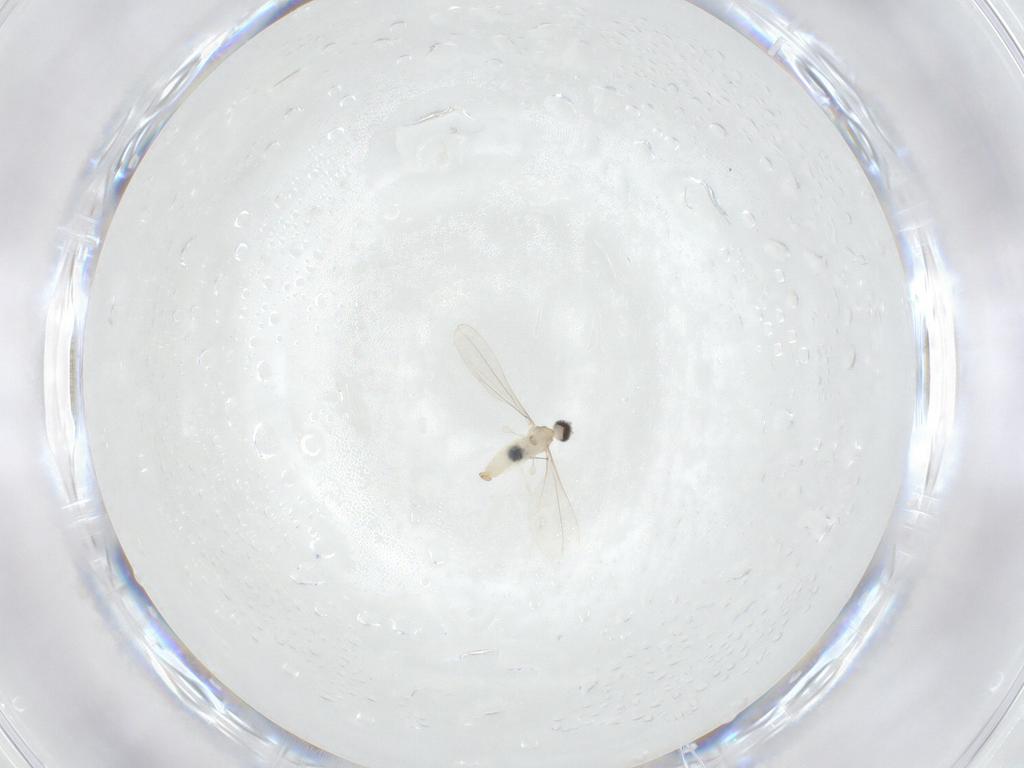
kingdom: Animalia
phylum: Arthropoda
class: Insecta
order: Diptera
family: Cecidomyiidae
